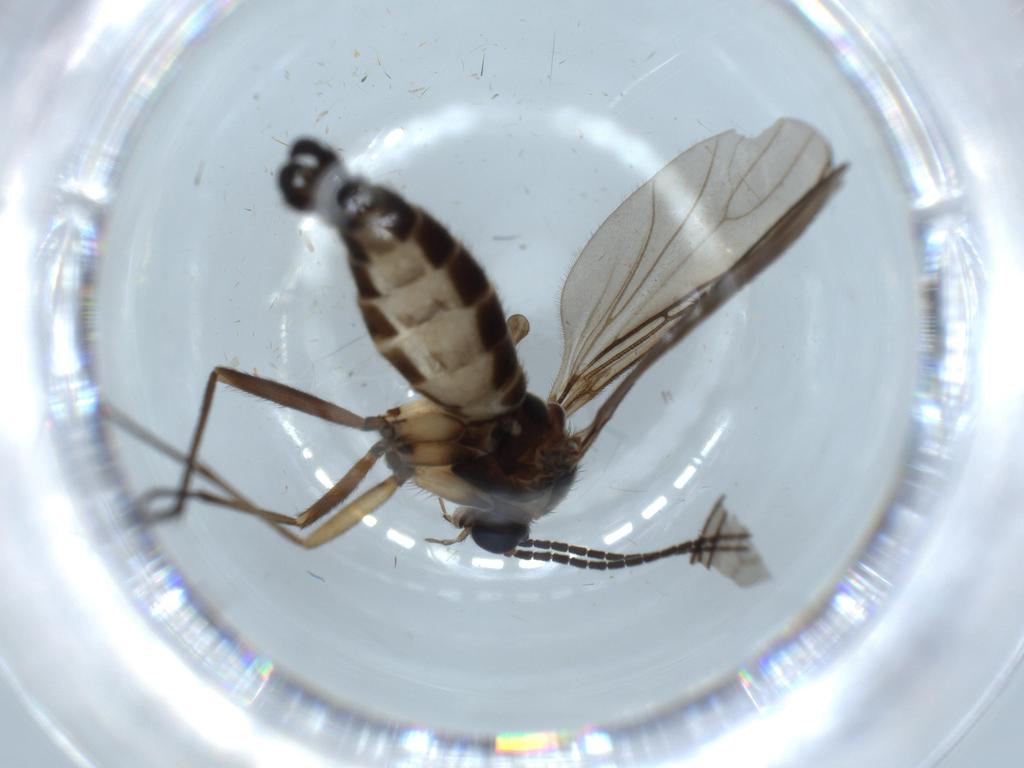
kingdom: Animalia
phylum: Arthropoda
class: Insecta
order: Diptera
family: Sciaridae
